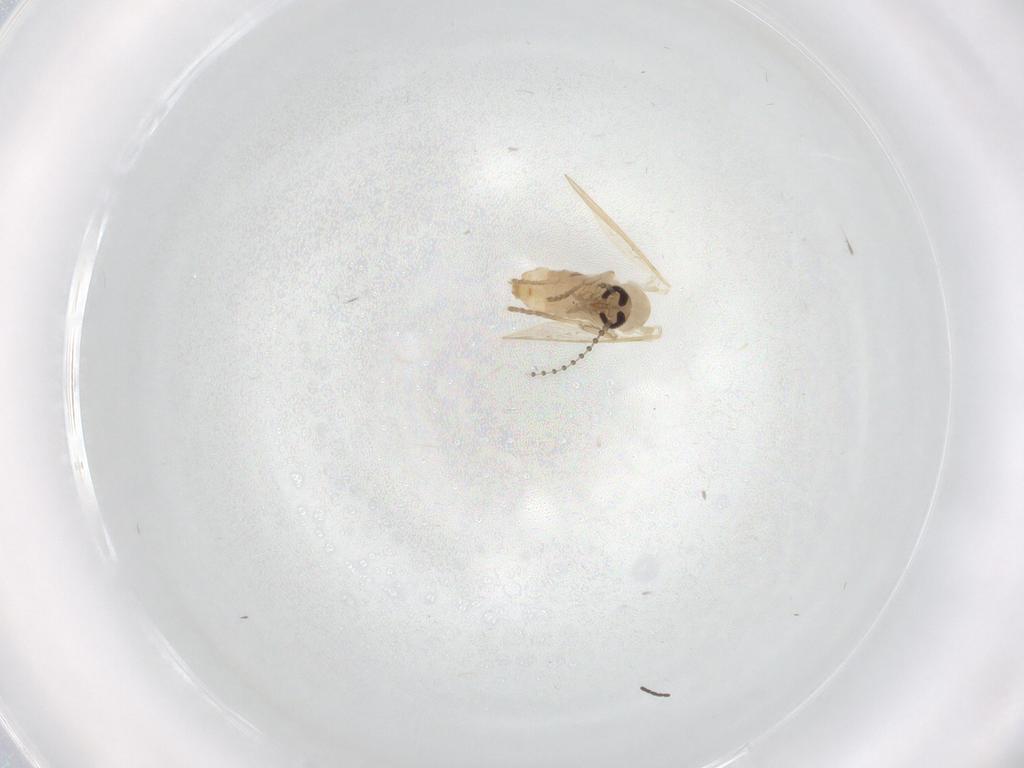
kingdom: Animalia
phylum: Arthropoda
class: Insecta
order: Diptera
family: Psychodidae
